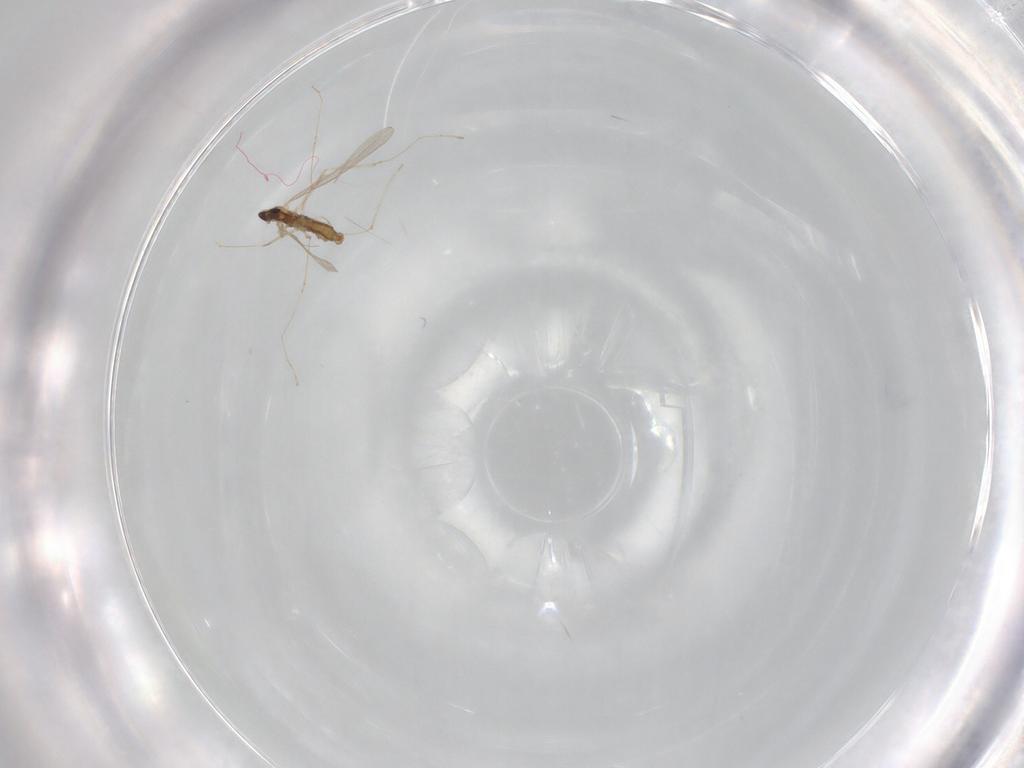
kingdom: Animalia
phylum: Arthropoda
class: Insecta
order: Diptera
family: Cecidomyiidae
